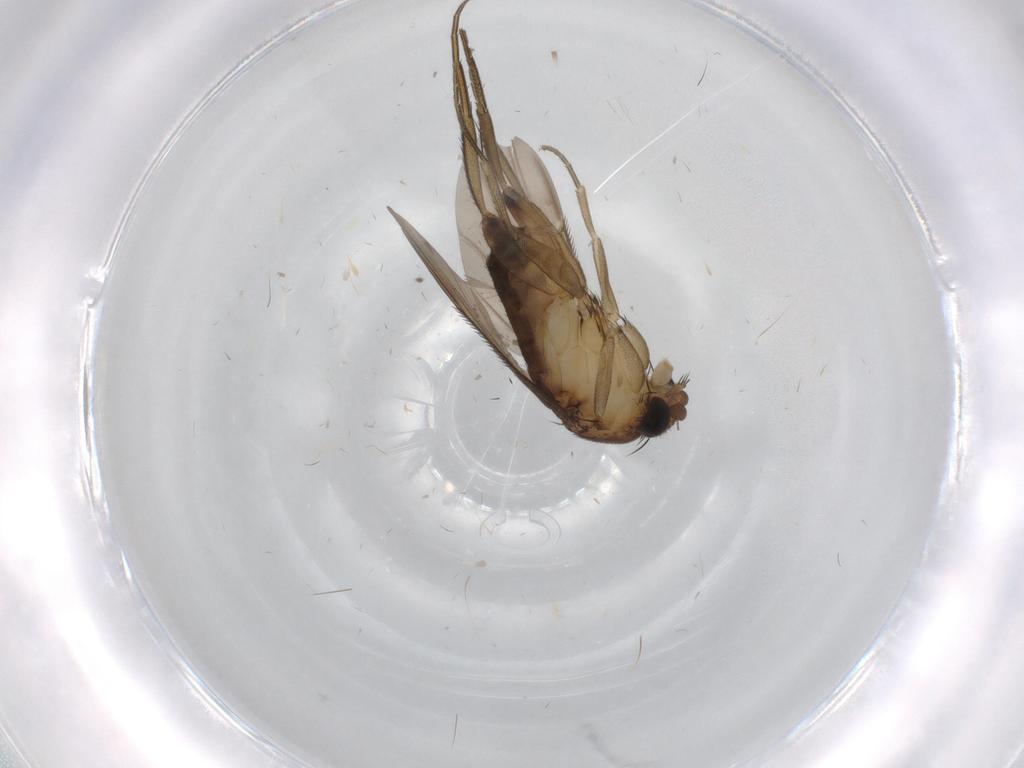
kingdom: Animalia
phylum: Arthropoda
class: Insecta
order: Diptera
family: Phoridae
